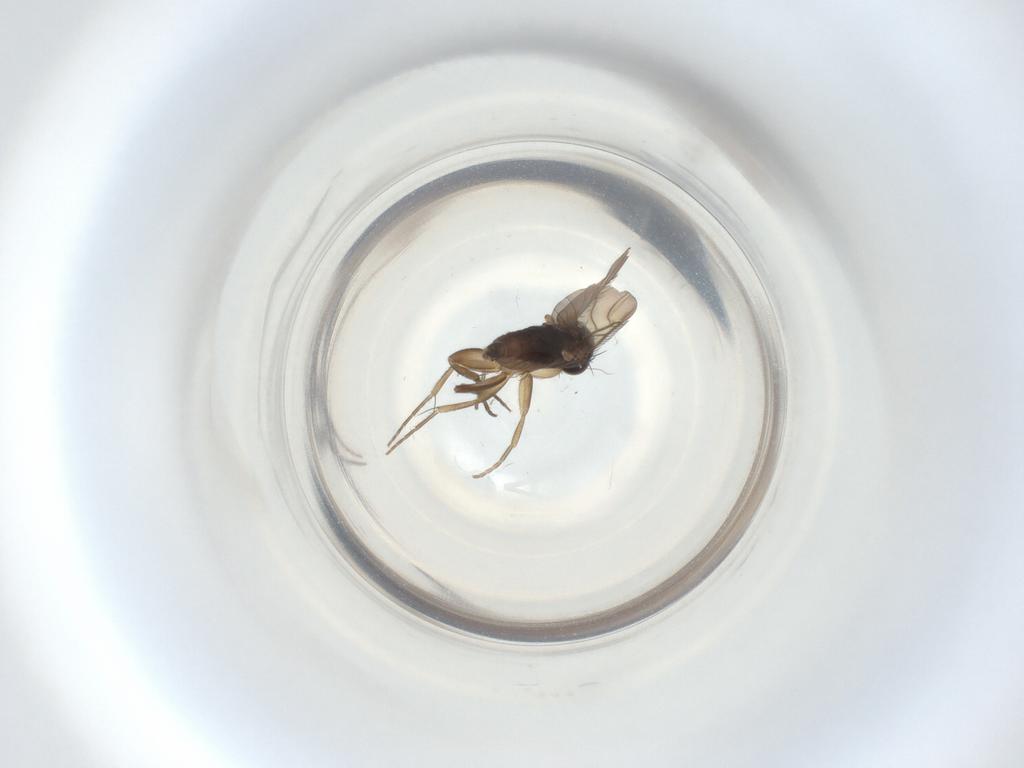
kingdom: Animalia
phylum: Arthropoda
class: Insecta
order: Diptera
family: Phoridae
